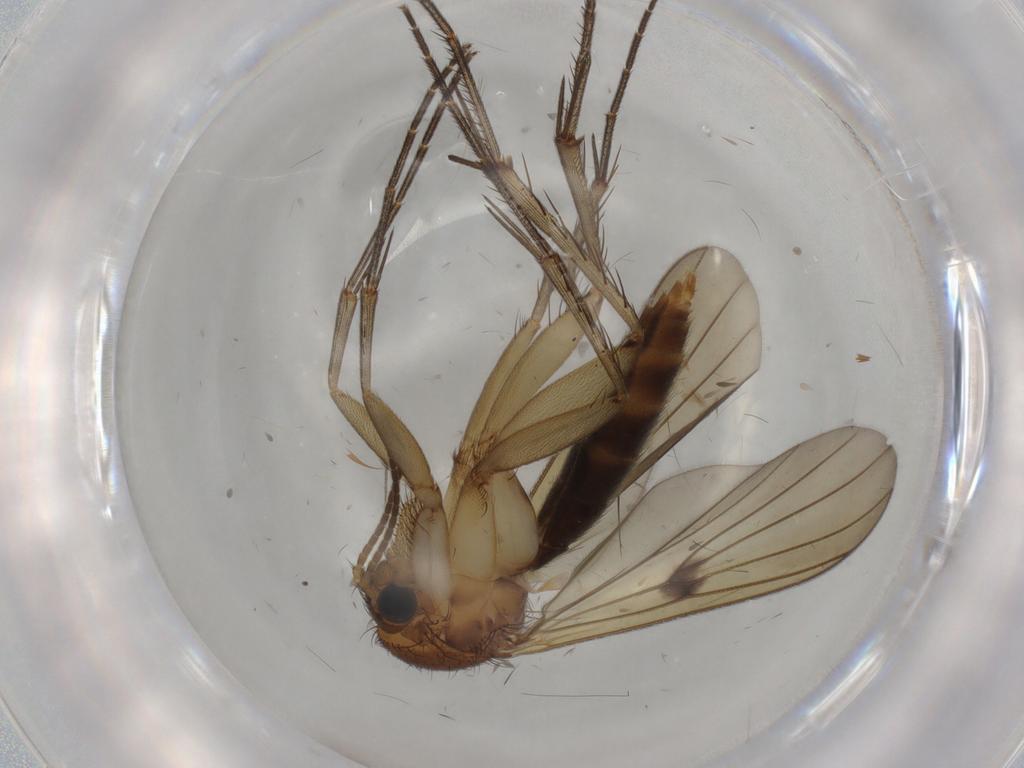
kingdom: Animalia
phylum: Arthropoda
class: Insecta
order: Diptera
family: Mycetophilidae
